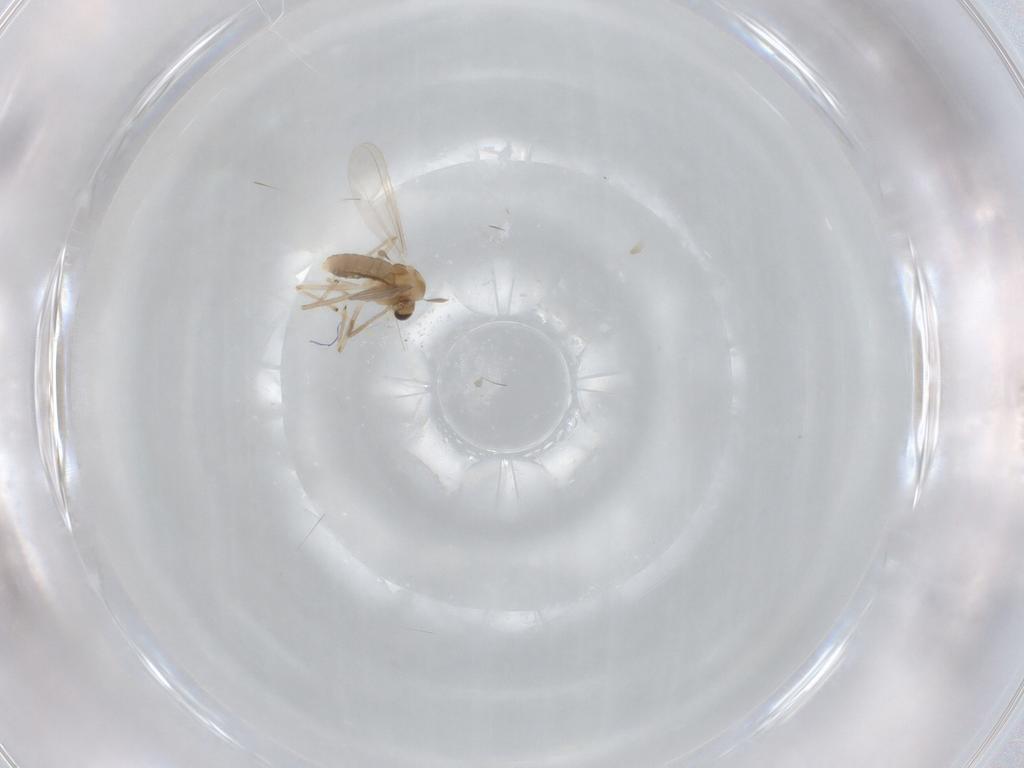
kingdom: Animalia
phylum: Arthropoda
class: Insecta
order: Diptera
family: Chironomidae
